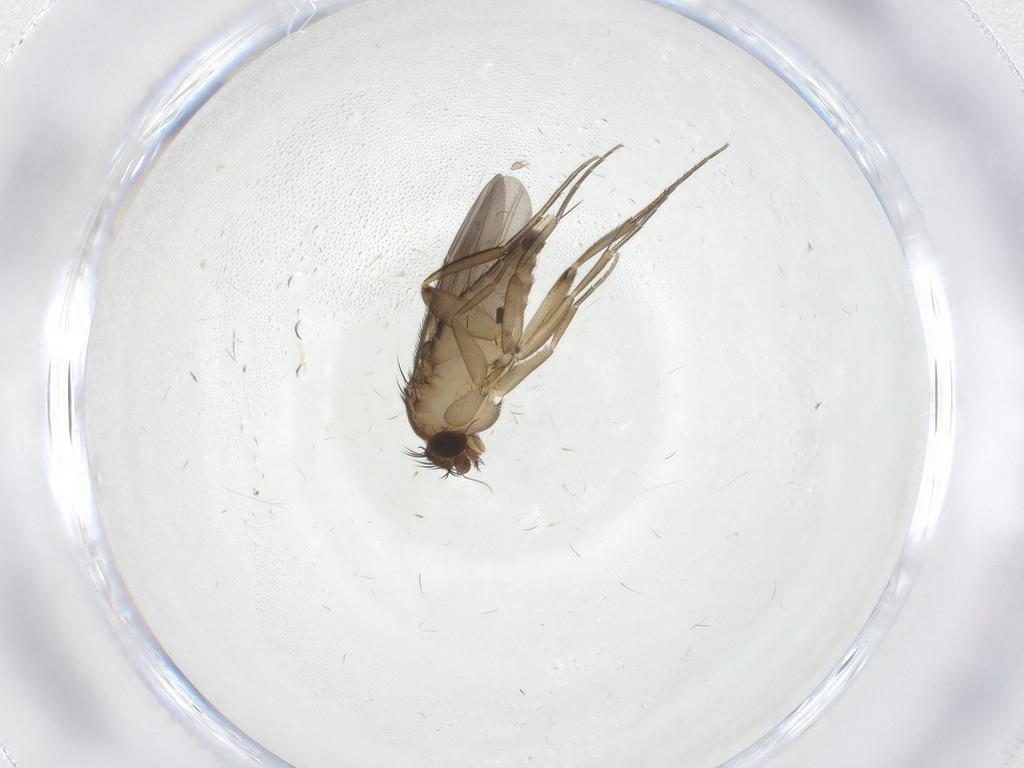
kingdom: Animalia
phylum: Arthropoda
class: Insecta
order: Diptera
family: Phoridae
